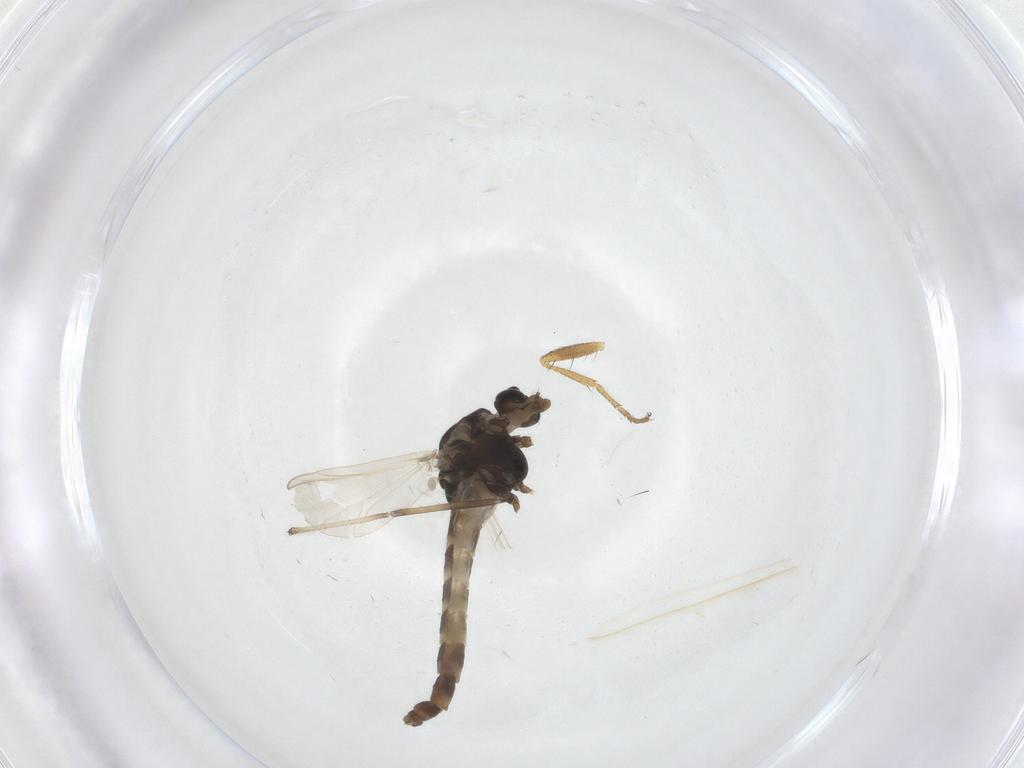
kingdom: Animalia
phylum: Arthropoda
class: Insecta
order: Diptera
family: Chironomidae
